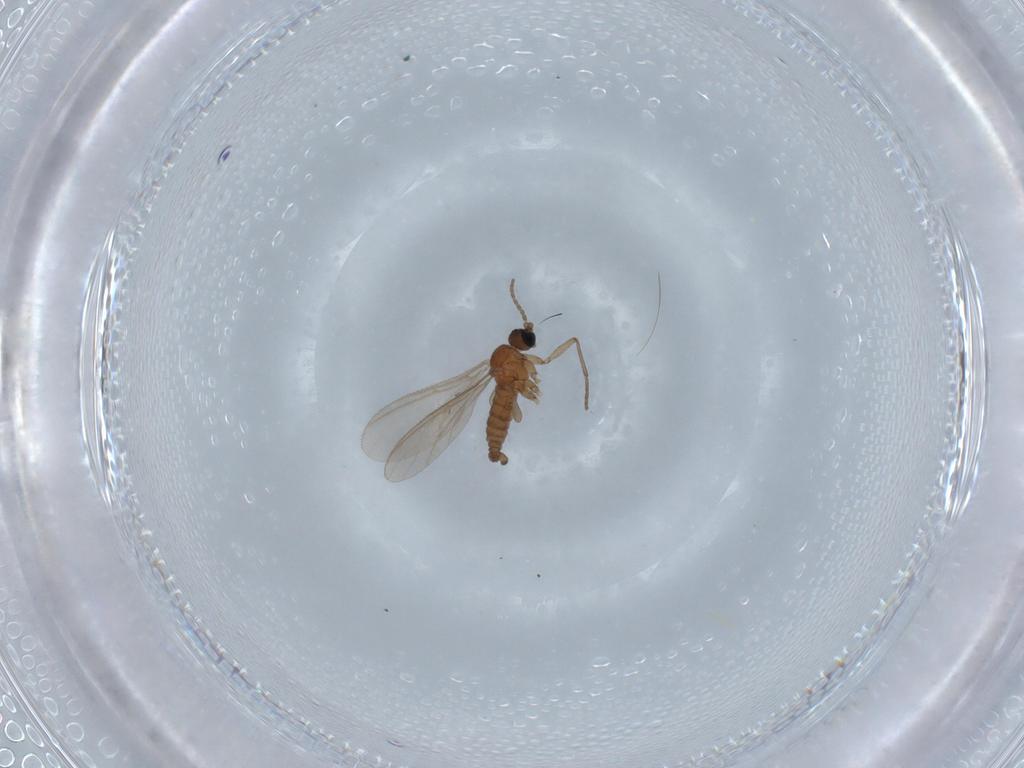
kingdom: Animalia
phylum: Arthropoda
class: Insecta
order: Diptera
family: Sciaridae
